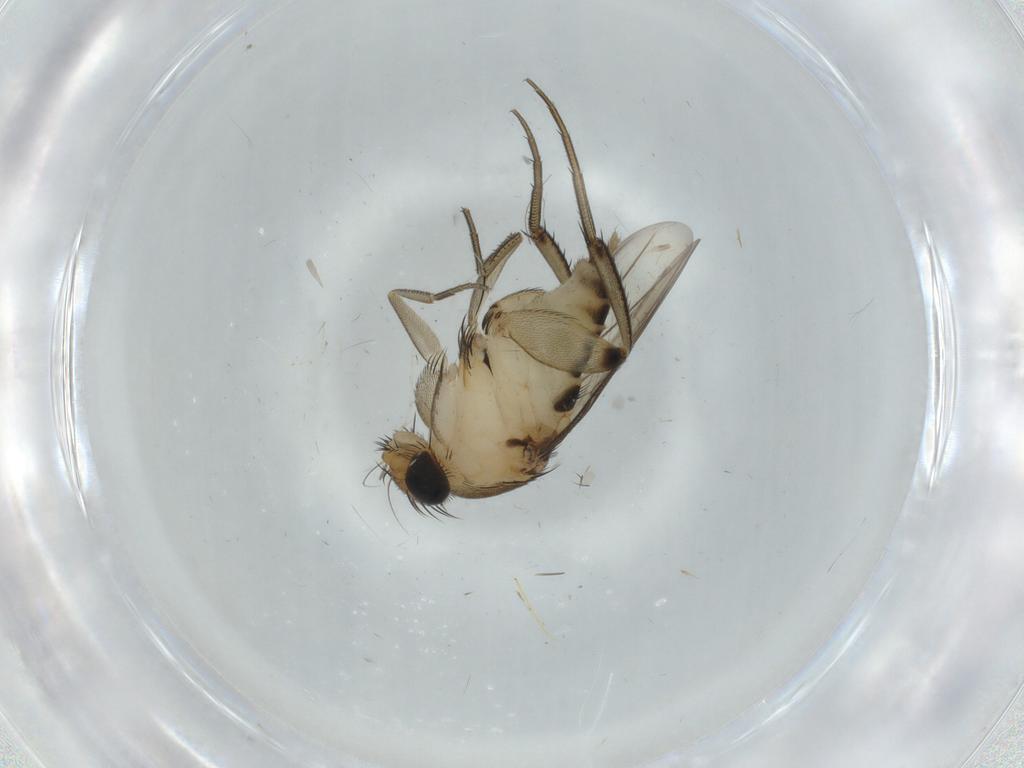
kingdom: Animalia
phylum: Arthropoda
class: Insecta
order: Diptera
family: Phoridae
